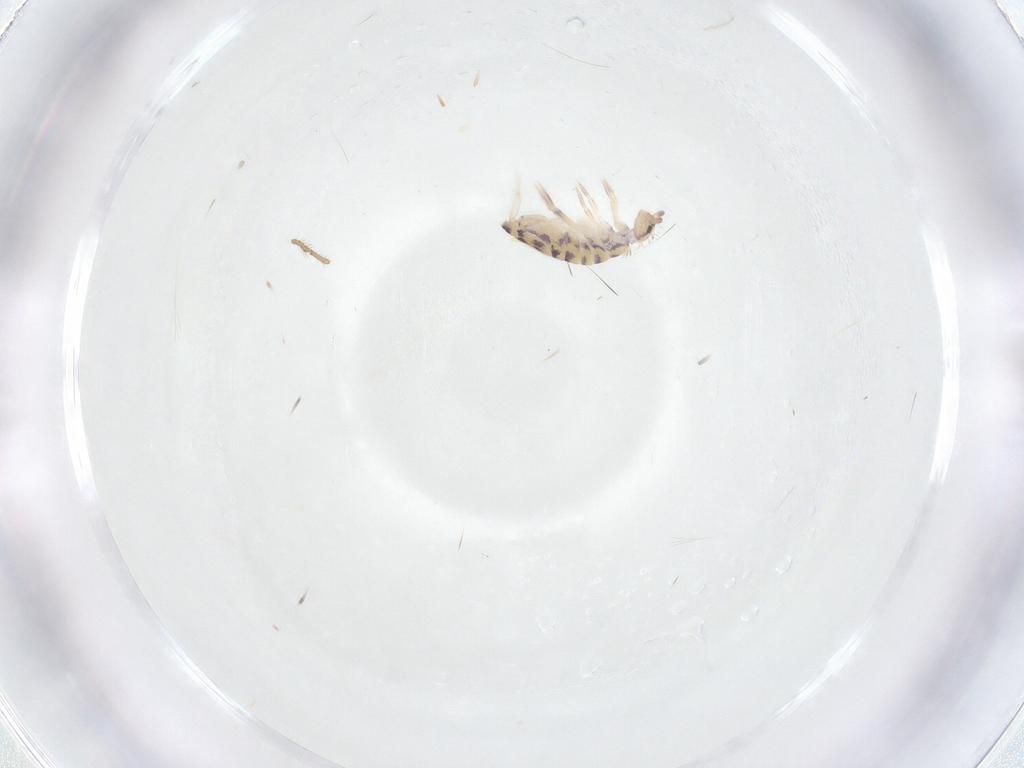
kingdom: Animalia
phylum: Arthropoda
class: Collembola
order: Entomobryomorpha
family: Entomobryidae
